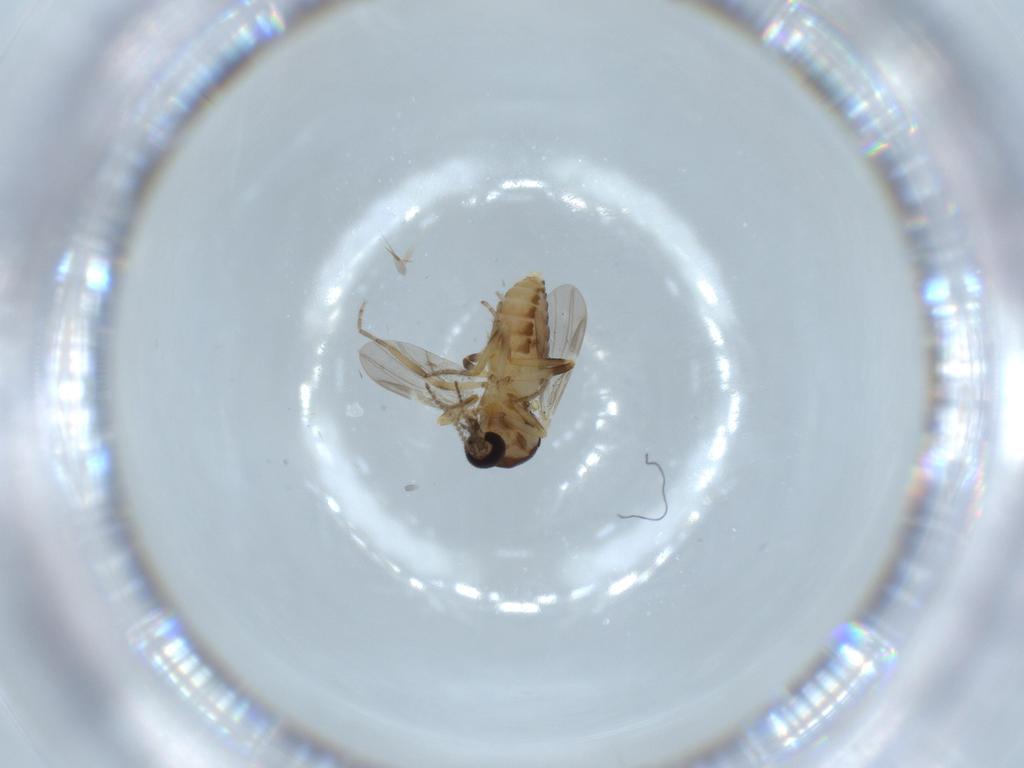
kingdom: Animalia
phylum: Arthropoda
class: Insecta
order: Diptera
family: Ceratopogonidae
